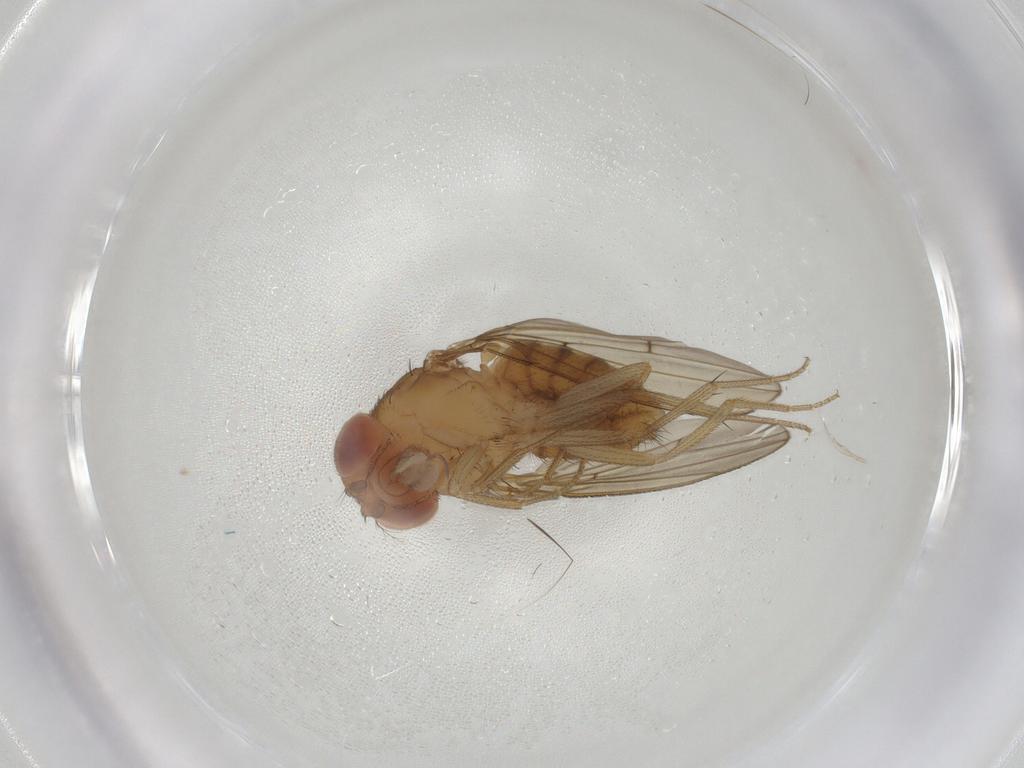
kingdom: Animalia
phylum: Arthropoda
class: Insecta
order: Diptera
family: Drosophilidae
